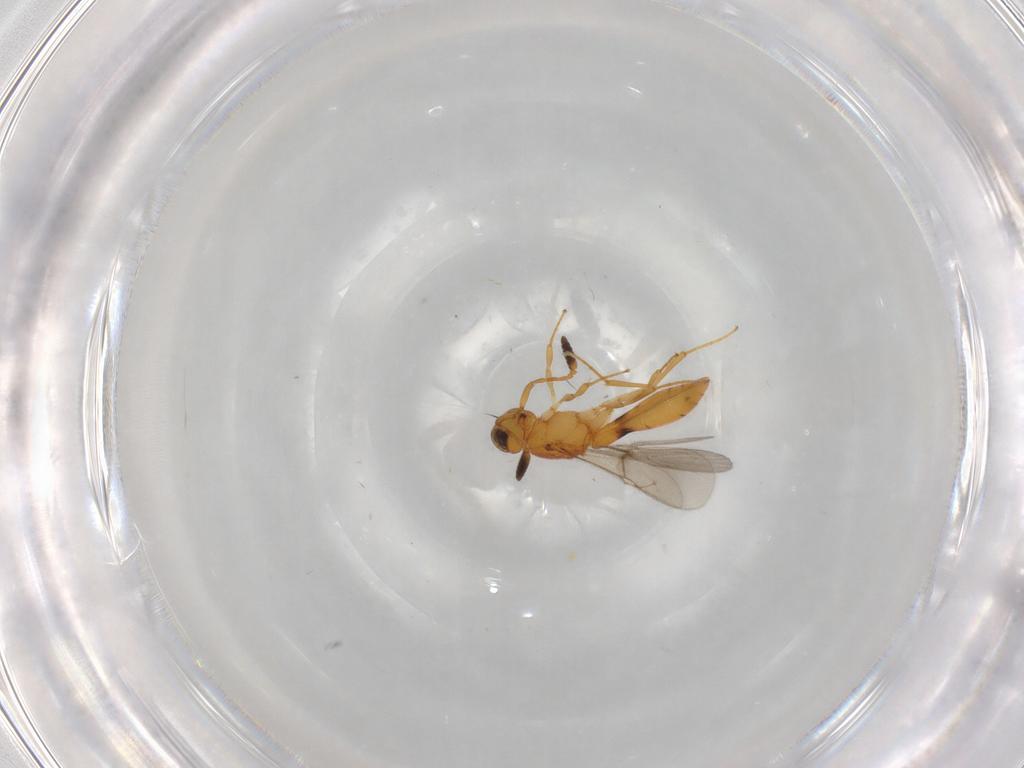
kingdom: Animalia
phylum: Arthropoda
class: Insecta
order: Hymenoptera
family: Scelionidae
